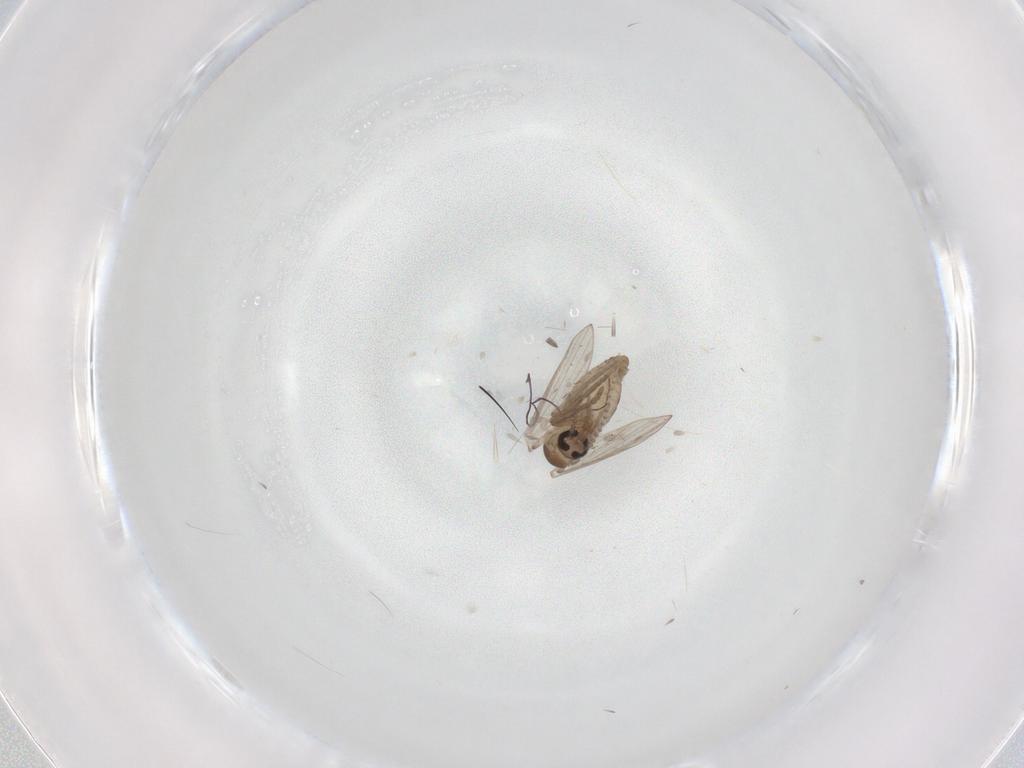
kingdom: Animalia
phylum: Arthropoda
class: Insecta
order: Diptera
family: Psychodidae
